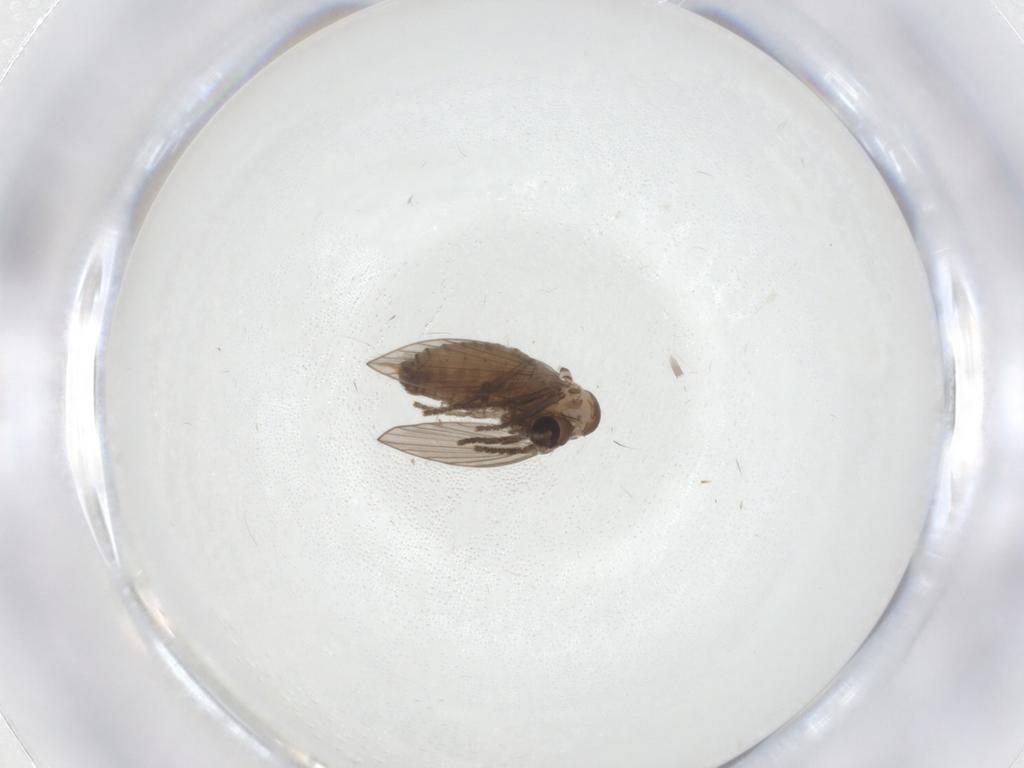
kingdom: Animalia
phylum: Arthropoda
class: Insecta
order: Diptera
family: Psychodidae
